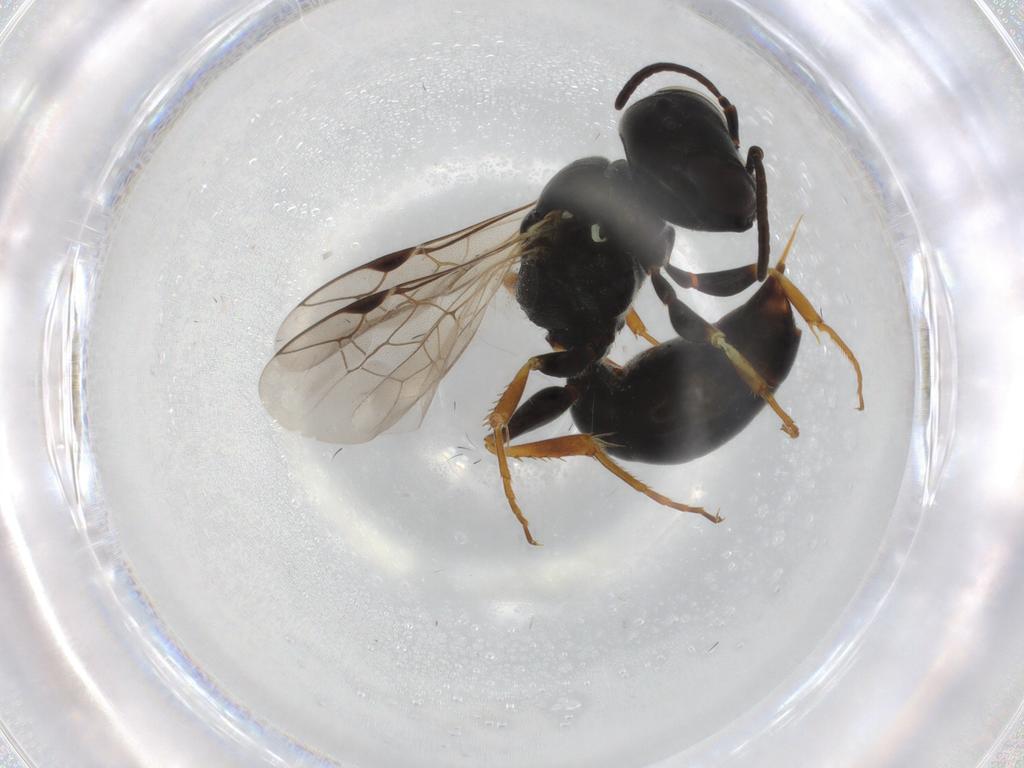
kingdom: Animalia
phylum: Arthropoda
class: Insecta
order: Hymenoptera
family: Crabronidae
